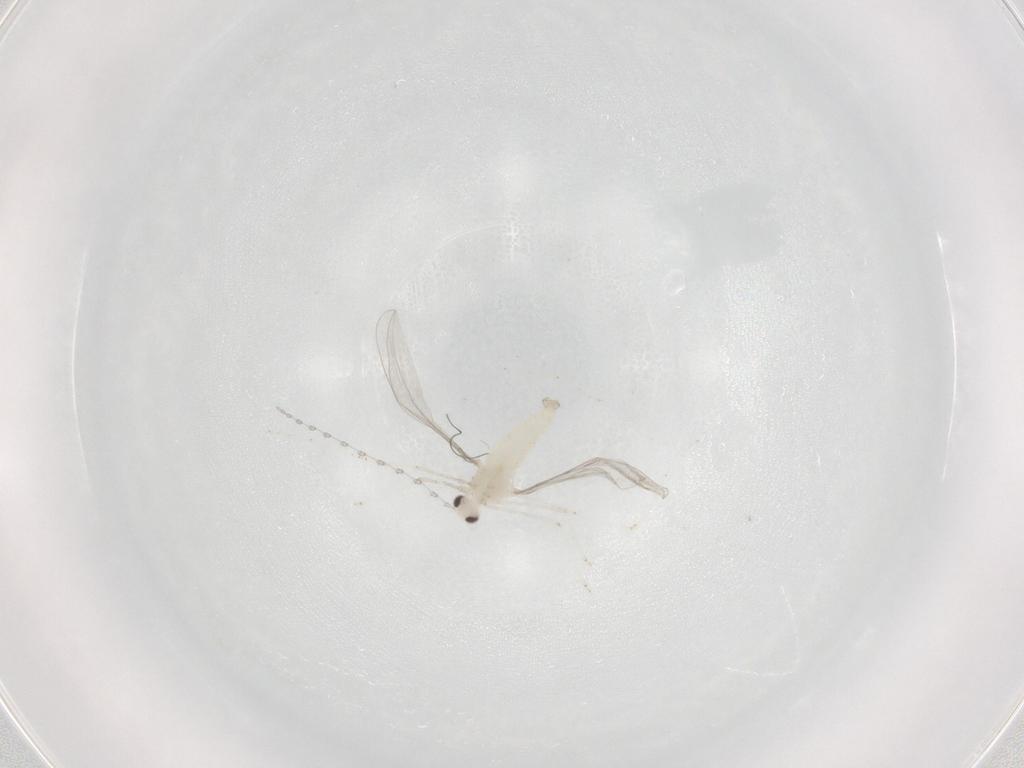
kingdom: Animalia
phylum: Arthropoda
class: Insecta
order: Diptera
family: Cecidomyiidae
